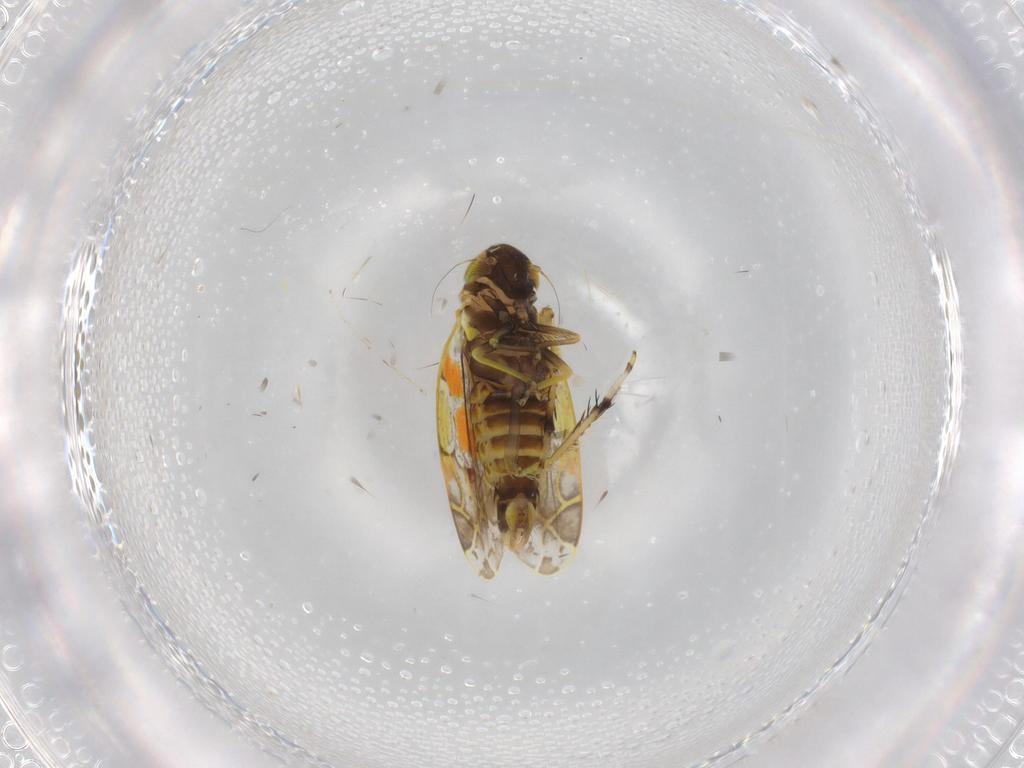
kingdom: Animalia
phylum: Arthropoda
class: Insecta
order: Hemiptera
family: Cicadellidae
